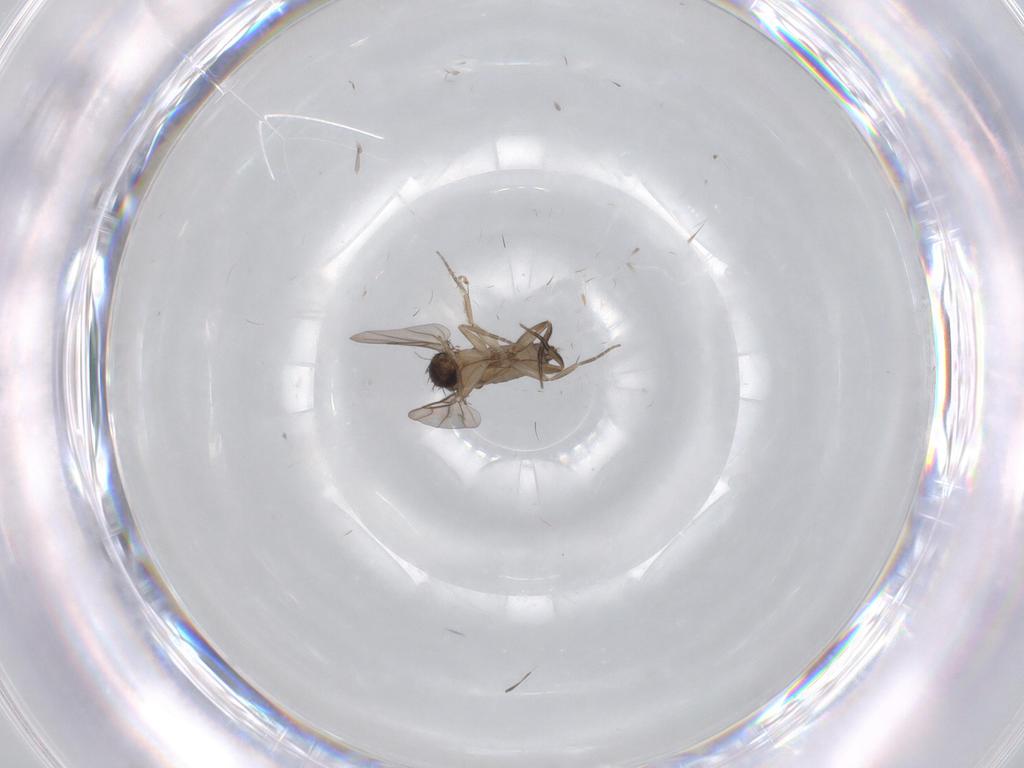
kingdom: Animalia
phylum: Arthropoda
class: Insecta
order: Diptera
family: Phoridae
